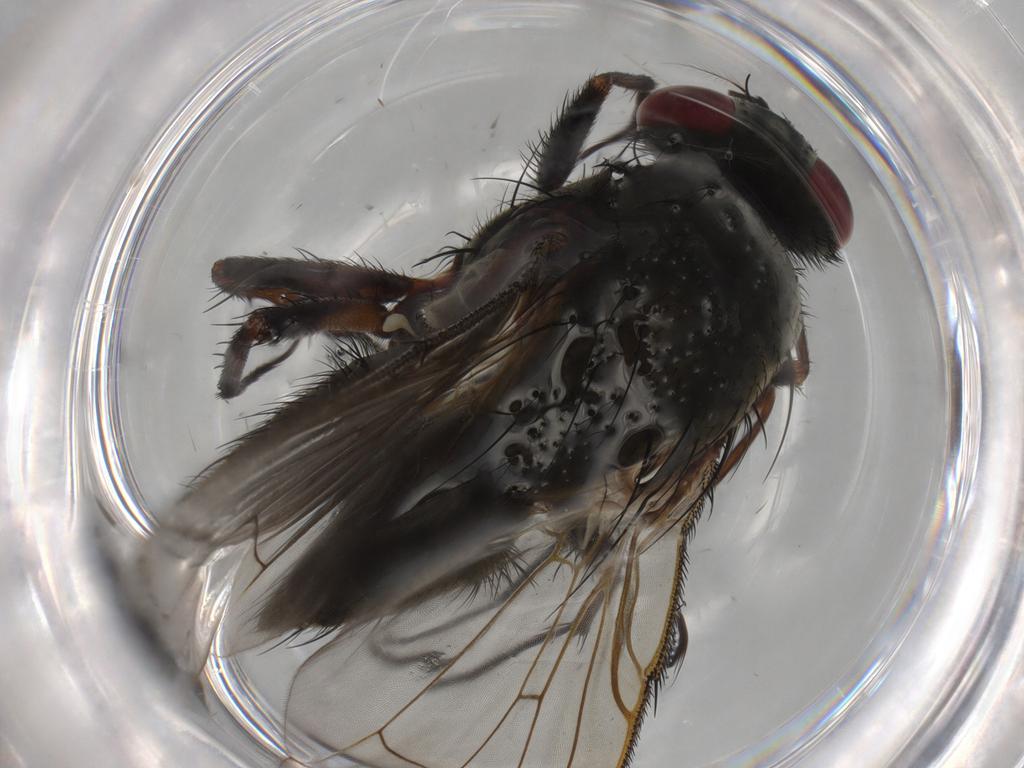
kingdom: Animalia
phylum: Arthropoda
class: Insecta
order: Diptera
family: Muscidae
